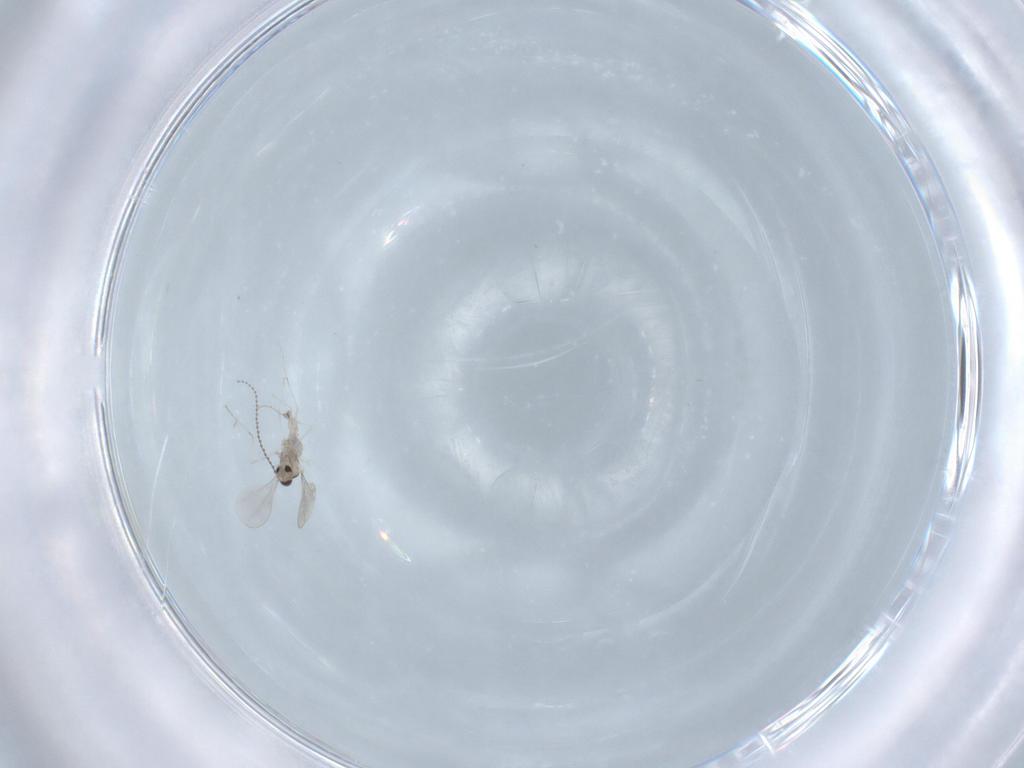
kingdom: Animalia
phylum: Arthropoda
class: Insecta
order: Diptera
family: Cecidomyiidae
